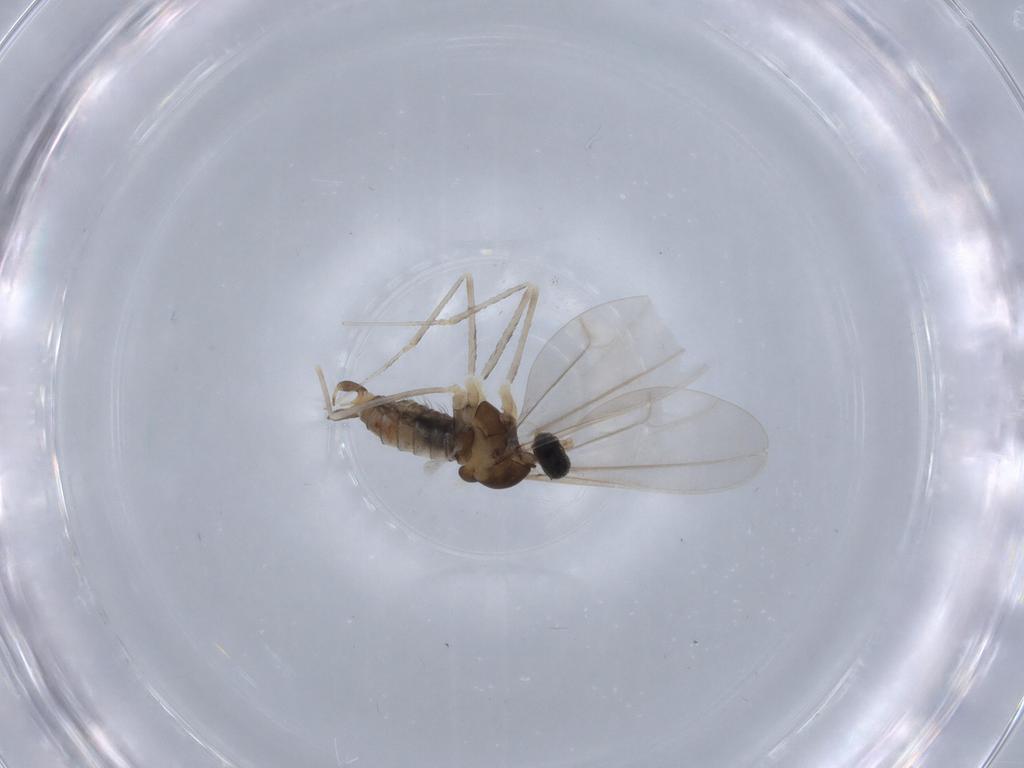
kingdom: Animalia
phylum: Arthropoda
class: Insecta
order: Diptera
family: Cecidomyiidae
